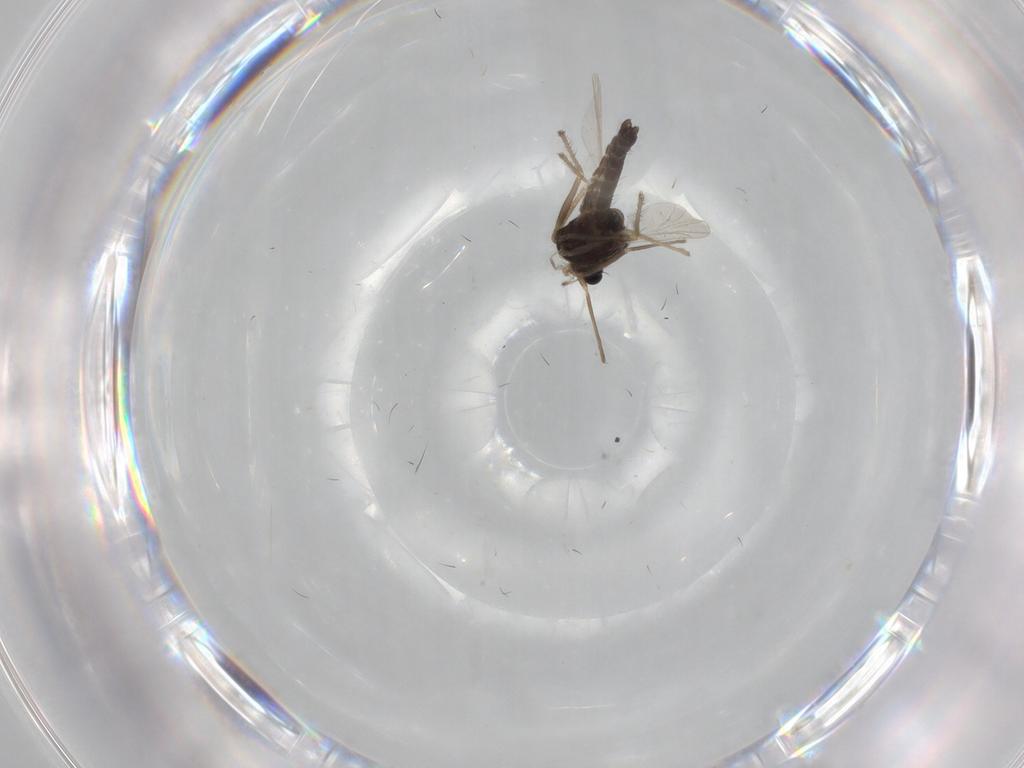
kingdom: Animalia
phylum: Arthropoda
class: Insecta
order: Diptera
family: Chironomidae
